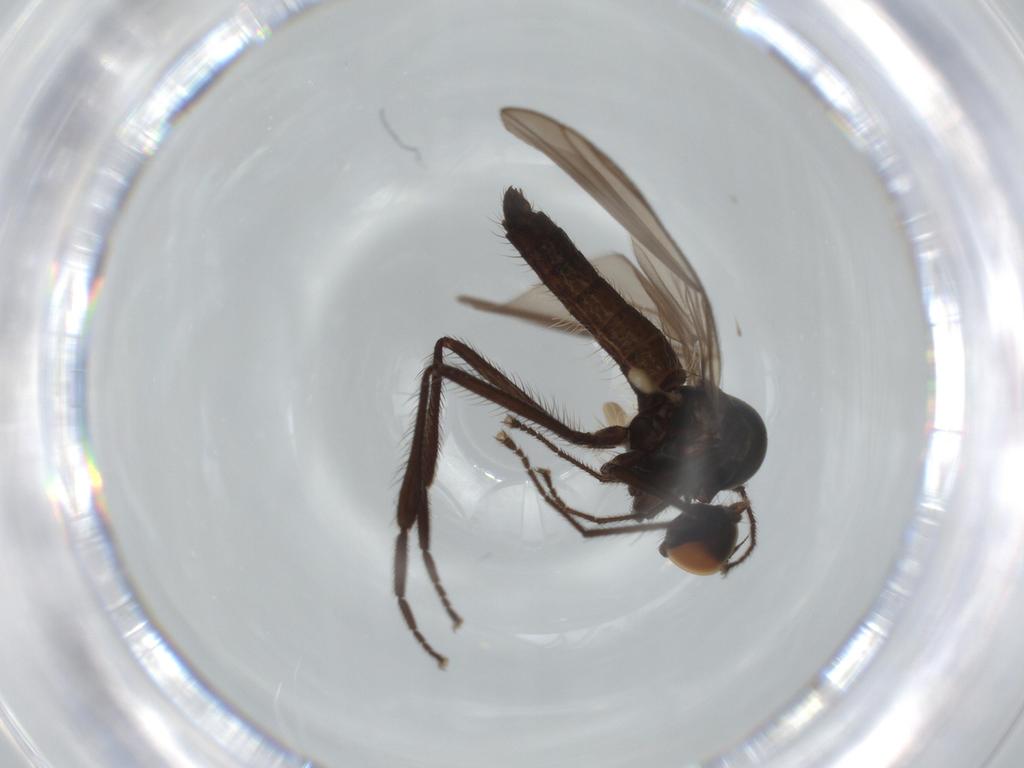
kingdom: Animalia
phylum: Arthropoda
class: Insecta
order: Diptera
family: Hybotidae
